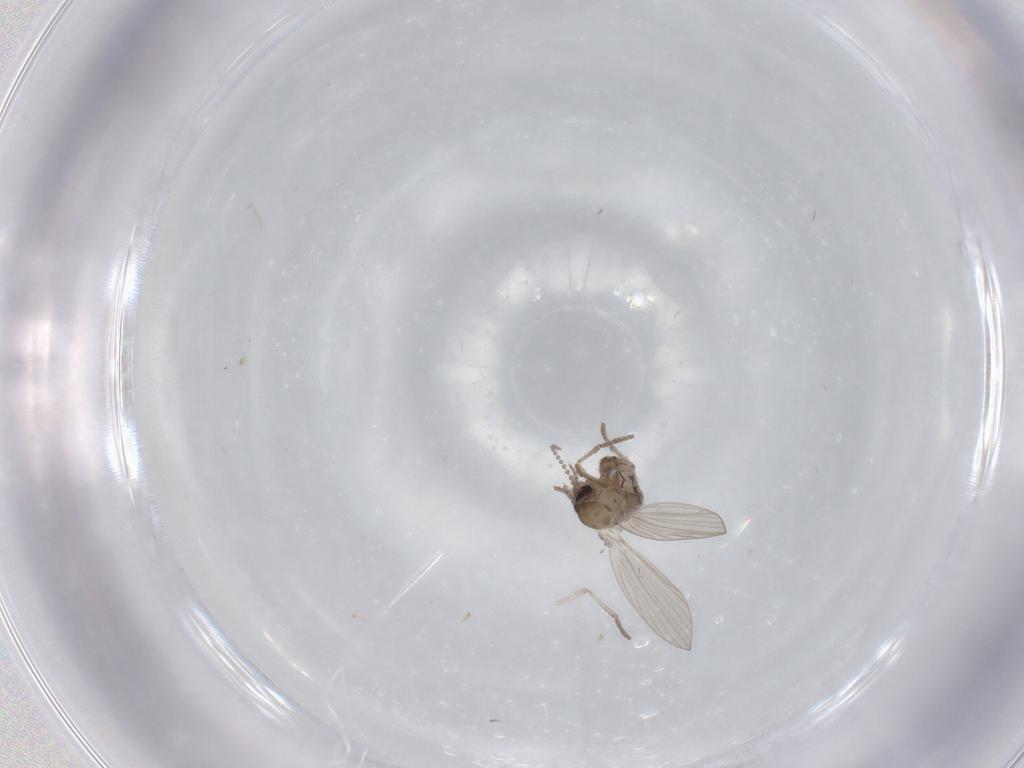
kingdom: Animalia
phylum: Arthropoda
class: Insecta
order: Diptera
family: Psychodidae
